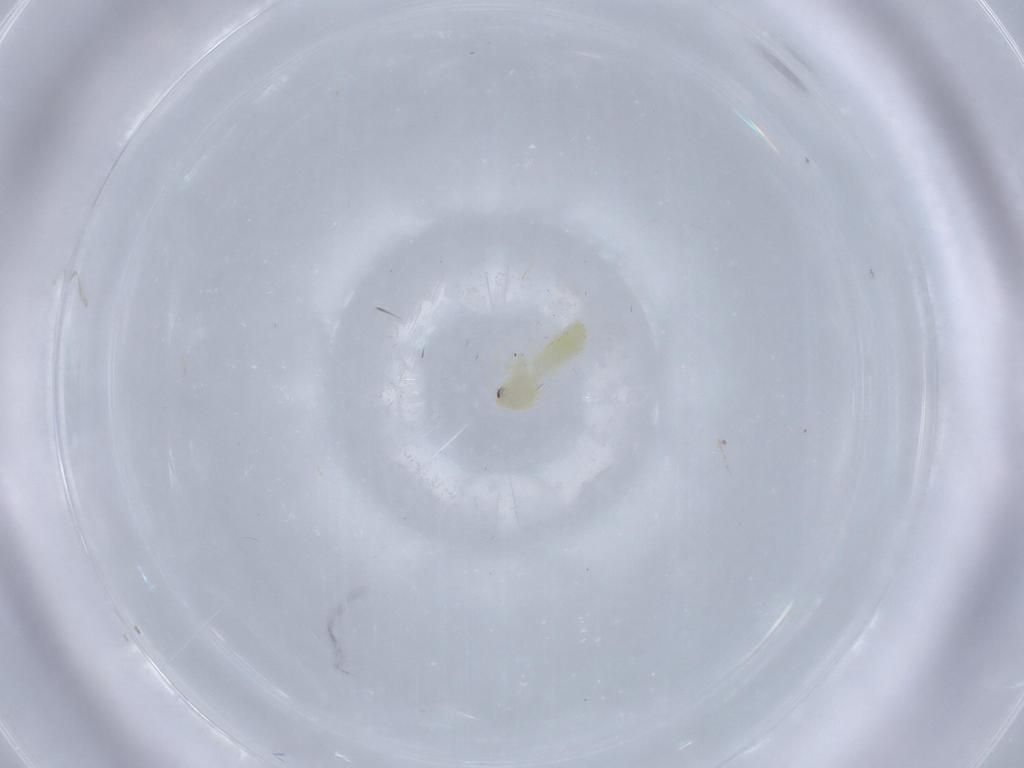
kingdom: Animalia
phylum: Arthropoda
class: Insecta
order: Hemiptera
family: Aleyrodidae
